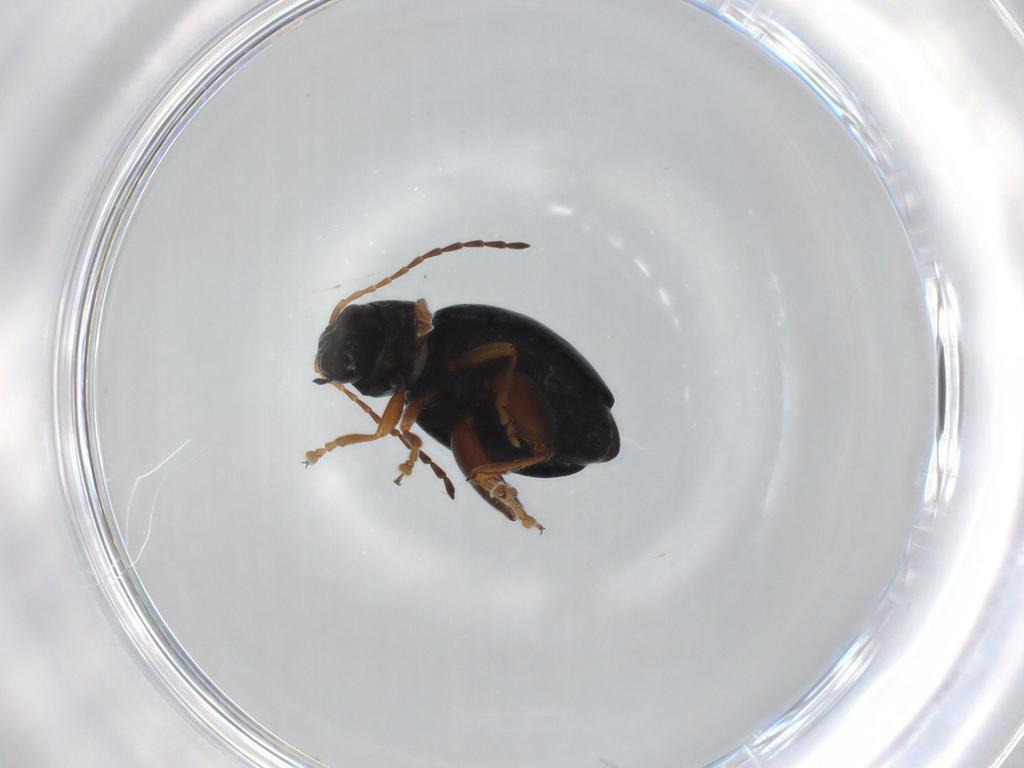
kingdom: Animalia
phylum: Arthropoda
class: Insecta
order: Coleoptera
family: Chrysomelidae
